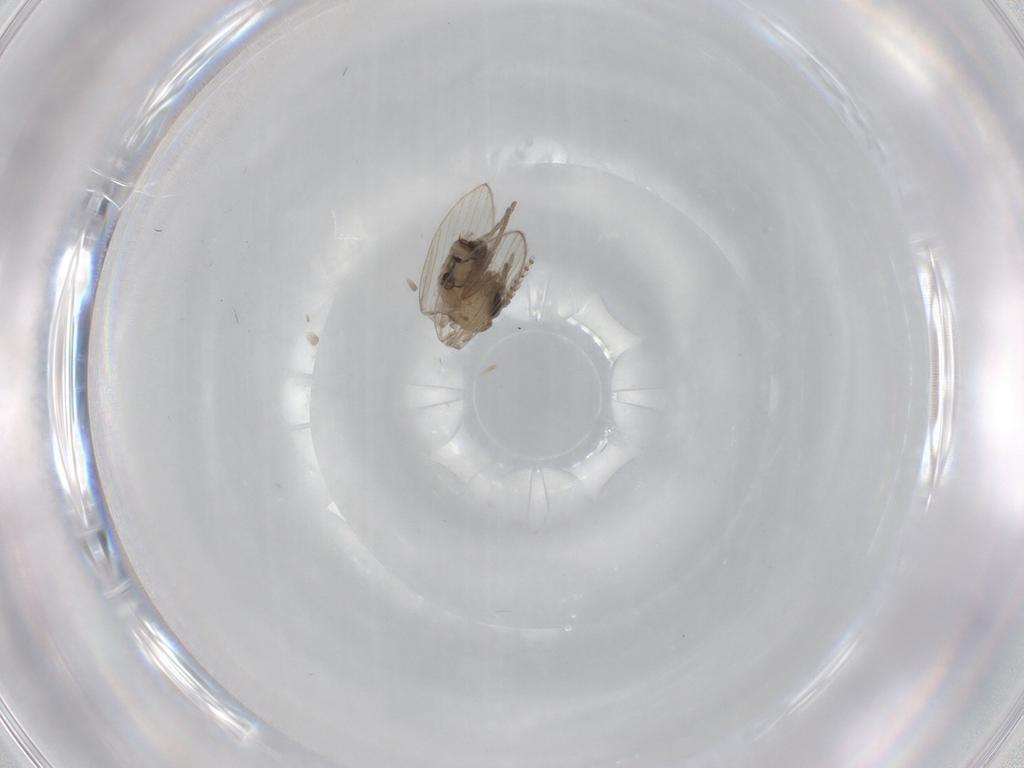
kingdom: Animalia
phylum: Arthropoda
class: Insecta
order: Diptera
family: Psychodidae
